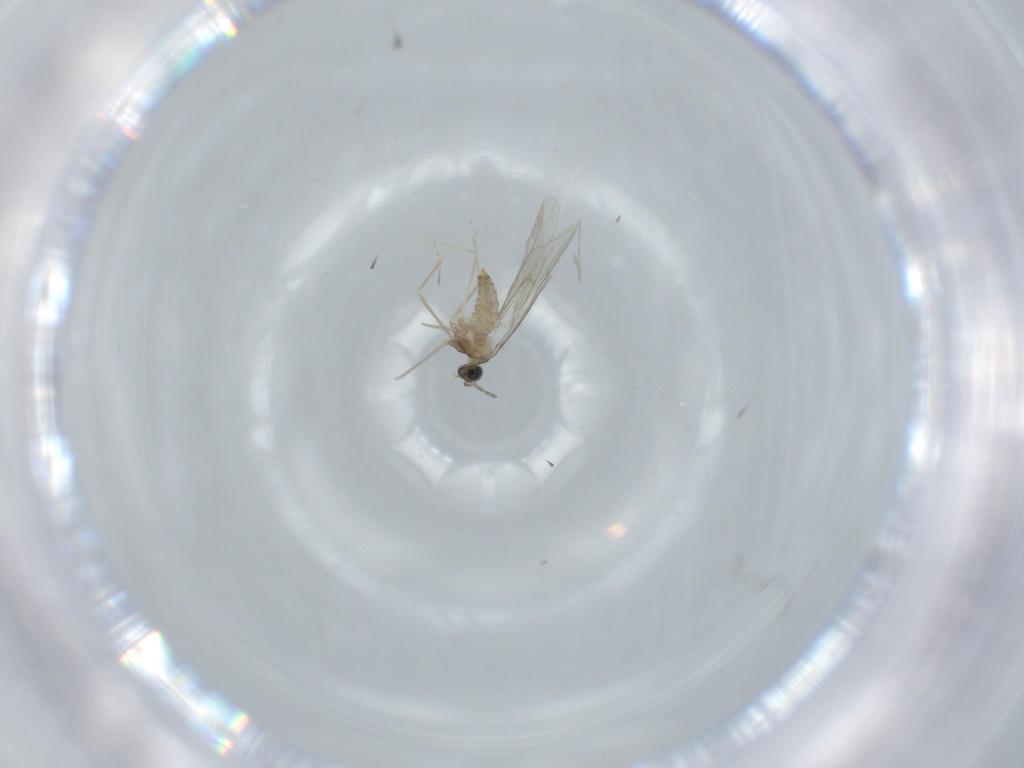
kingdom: Animalia
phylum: Arthropoda
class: Insecta
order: Diptera
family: Cecidomyiidae
